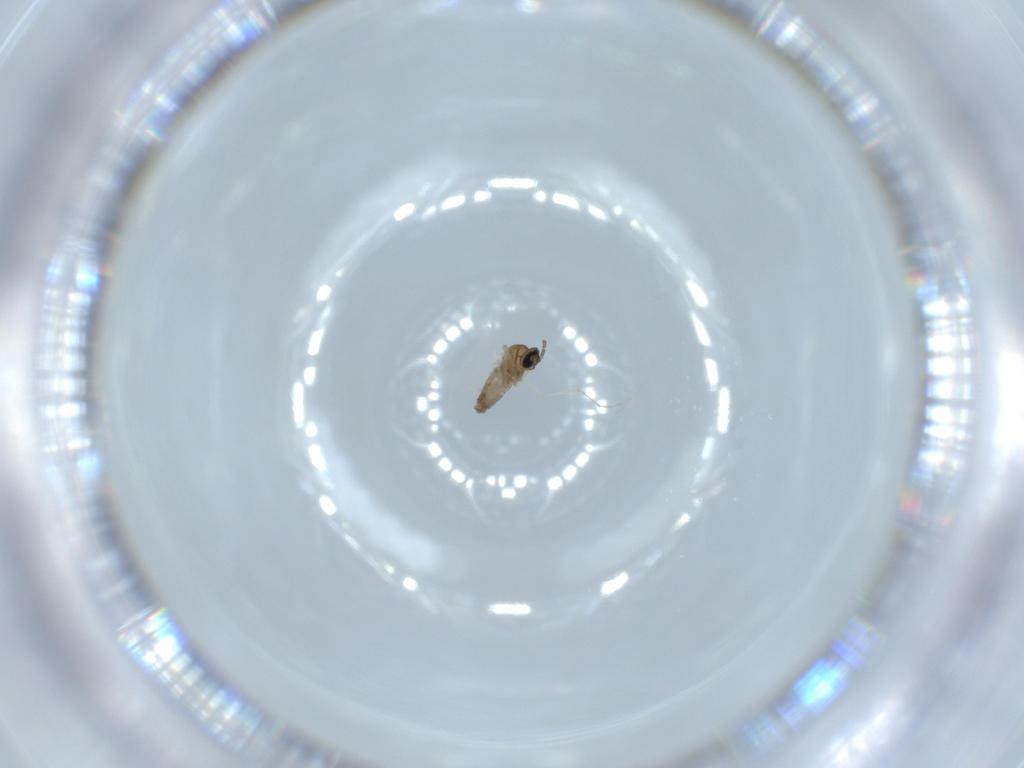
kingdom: Animalia
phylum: Arthropoda
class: Insecta
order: Diptera
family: Cecidomyiidae
